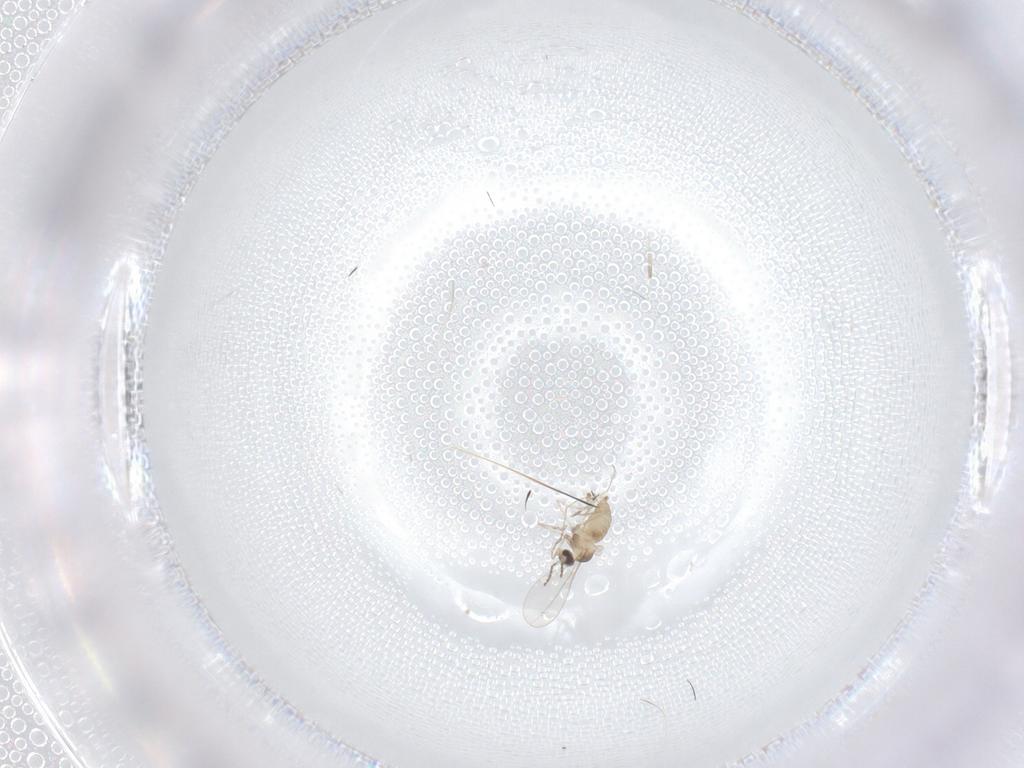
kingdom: Animalia
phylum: Arthropoda
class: Insecta
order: Diptera
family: Cecidomyiidae
